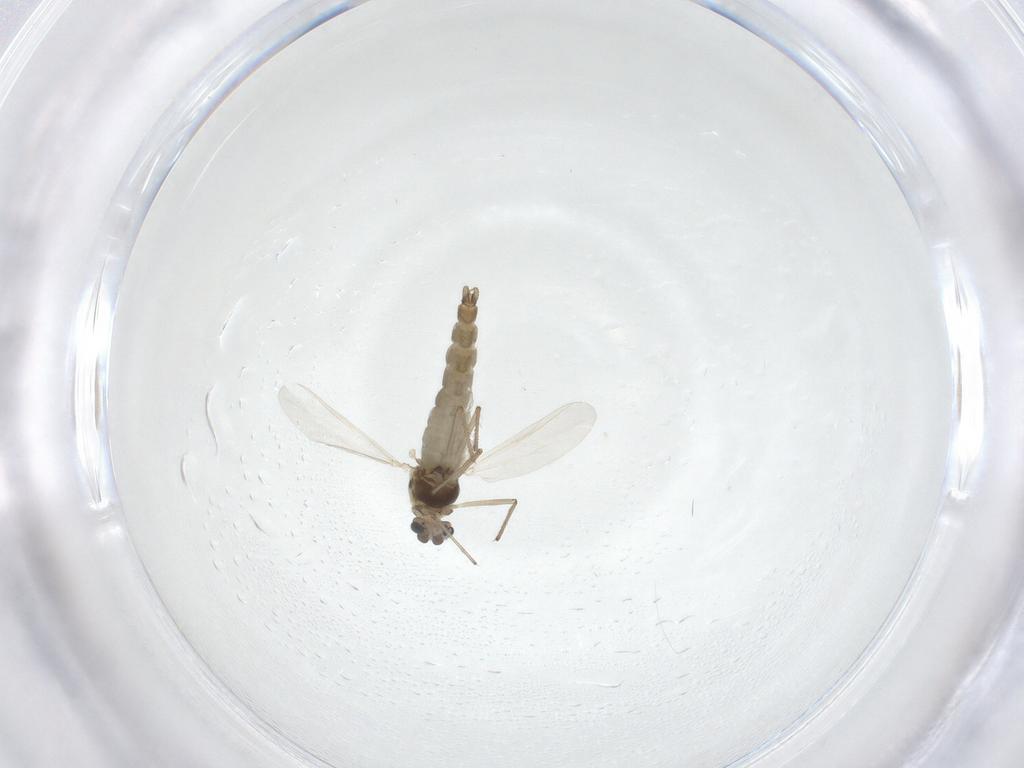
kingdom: Animalia
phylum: Arthropoda
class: Insecta
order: Diptera
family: Chironomidae
